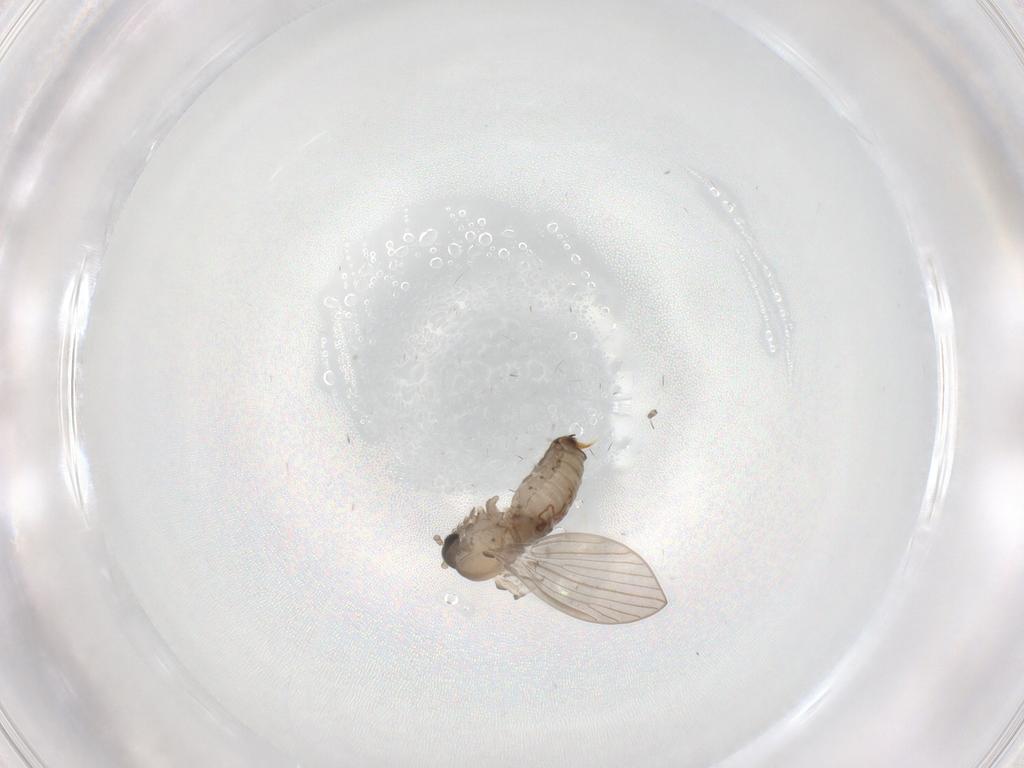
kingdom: Animalia
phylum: Arthropoda
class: Insecta
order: Diptera
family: Psychodidae
